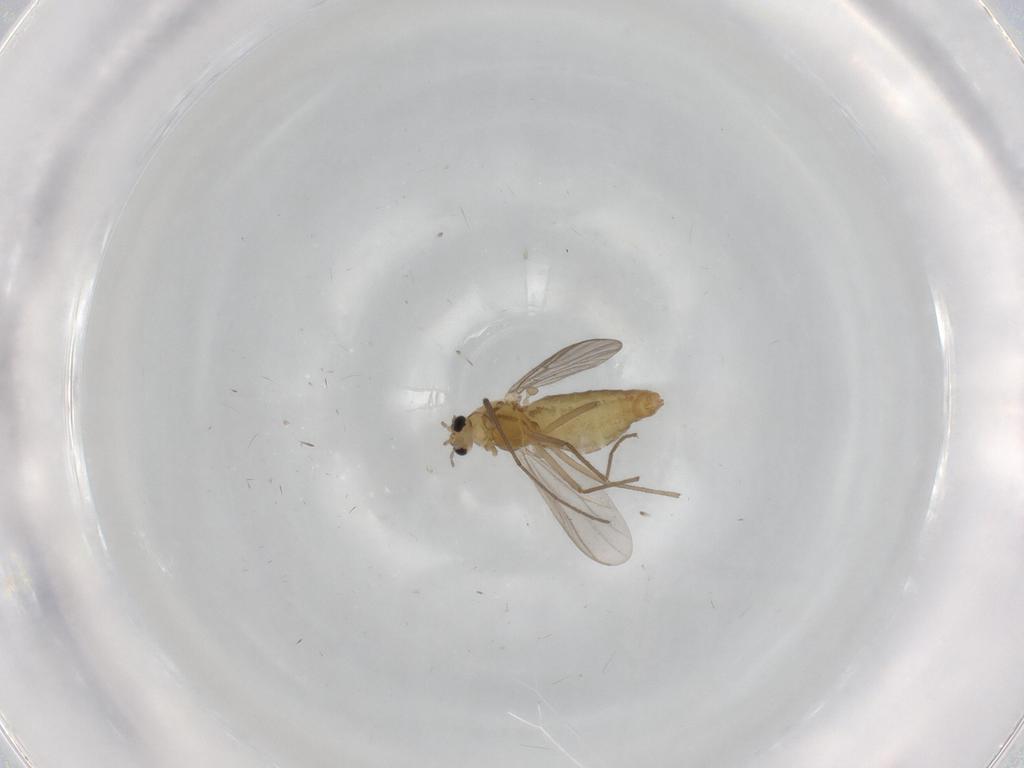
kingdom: Animalia
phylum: Arthropoda
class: Insecta
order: Diptera
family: Chironomidae
